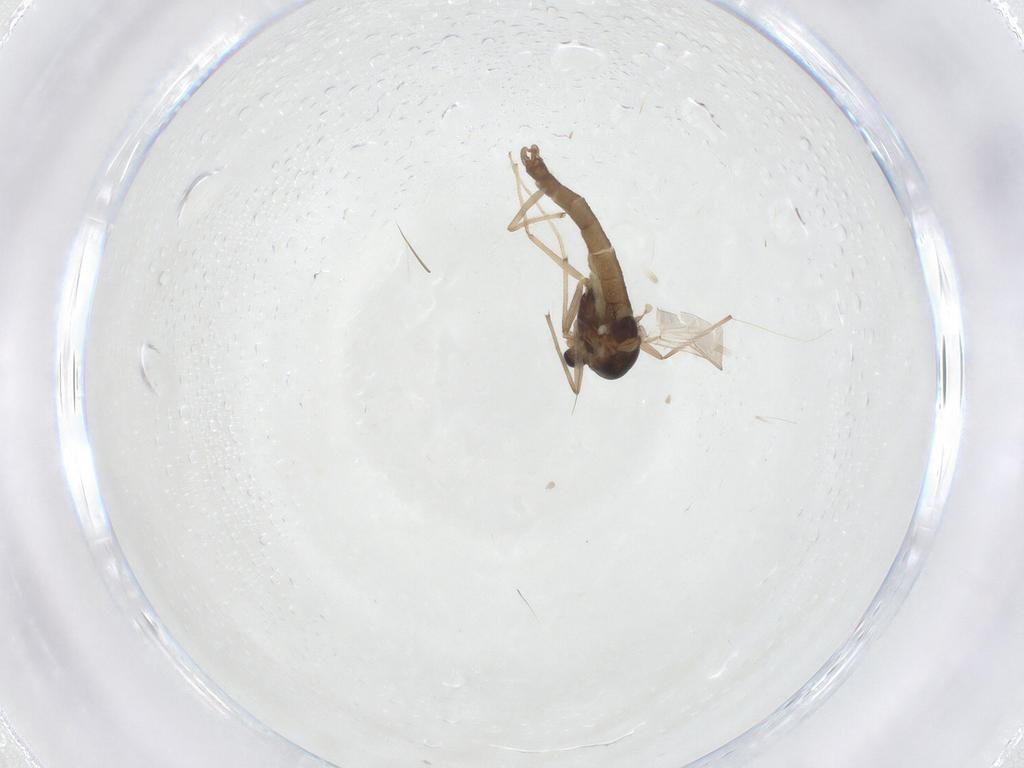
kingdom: Animalia
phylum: Arthropoda
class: Insecta
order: Diptera
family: Chironomidae
